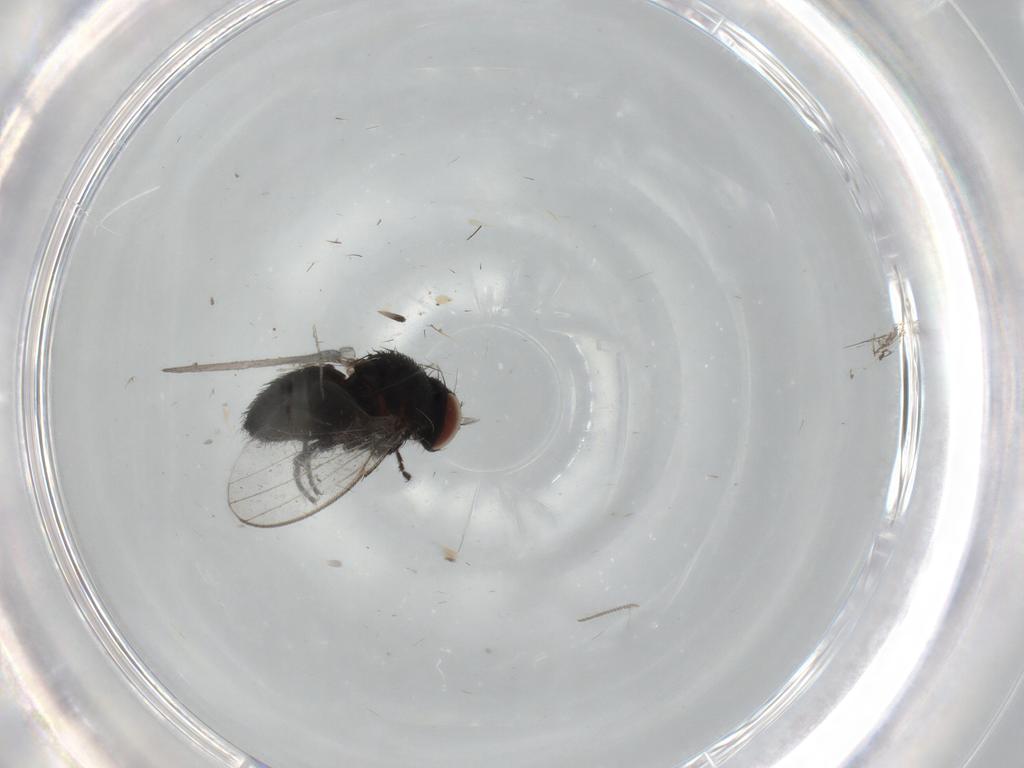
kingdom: Animalia
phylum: Arthropoda
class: Insecta
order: Diptera
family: Milichiidae
